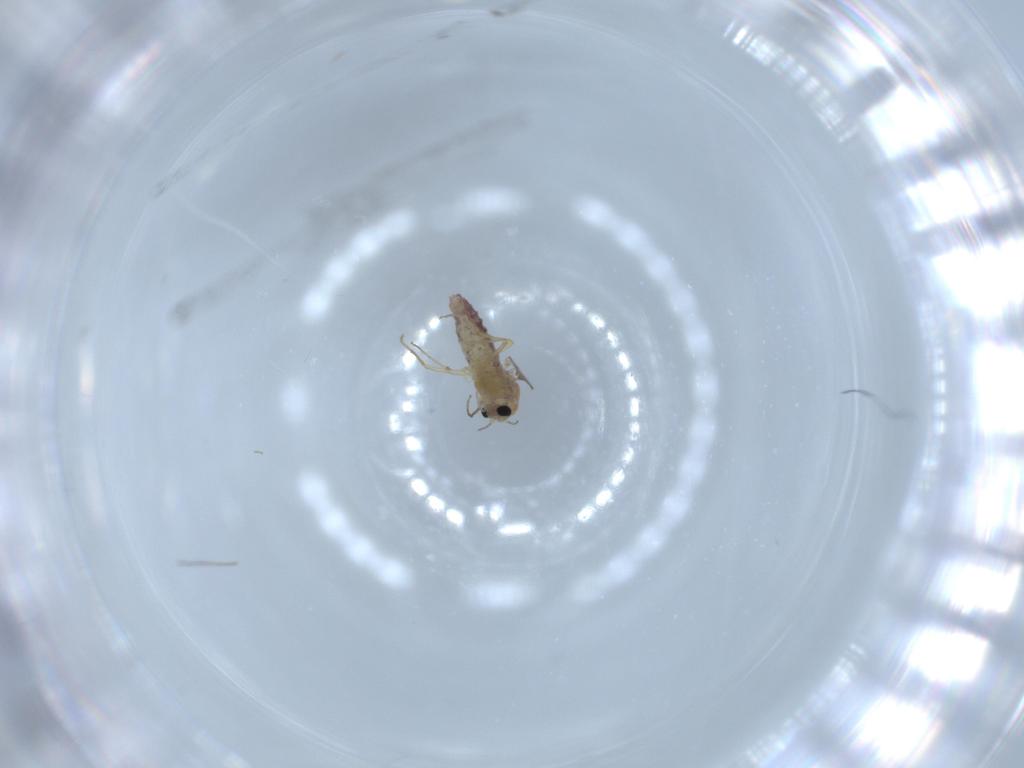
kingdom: Animalia
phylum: Arthropoda
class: Insecta
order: Diptera
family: Chironomidae
